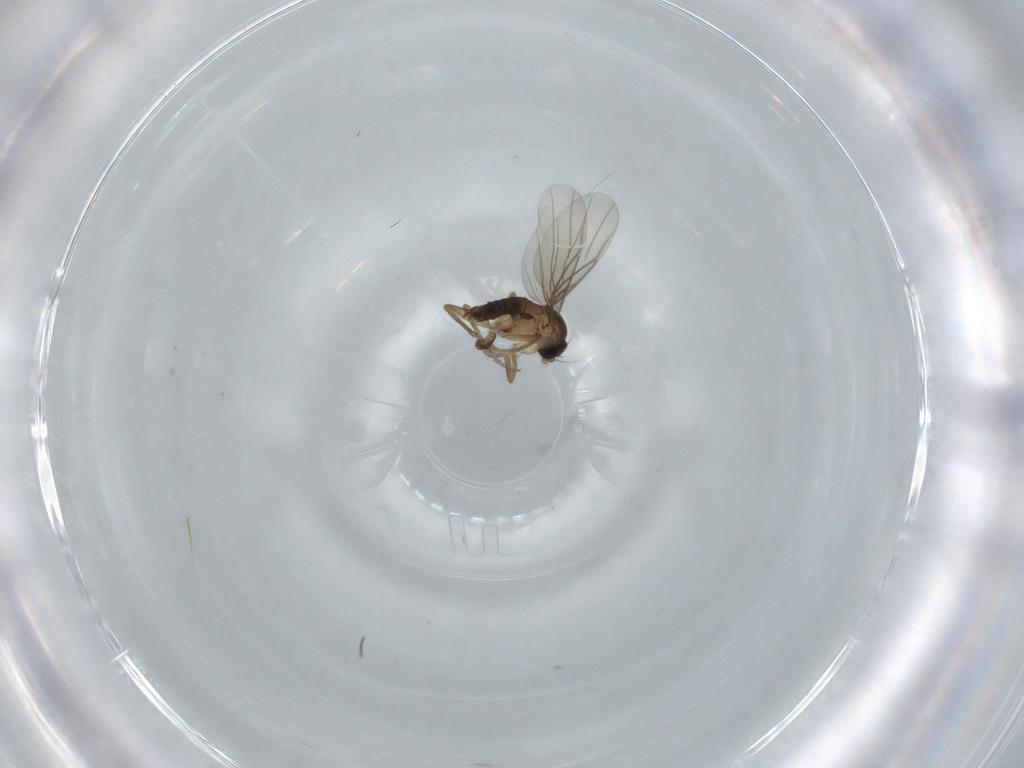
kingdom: Animalia
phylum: Arthropoda
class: Insecta
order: Diptera
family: Phoridae
